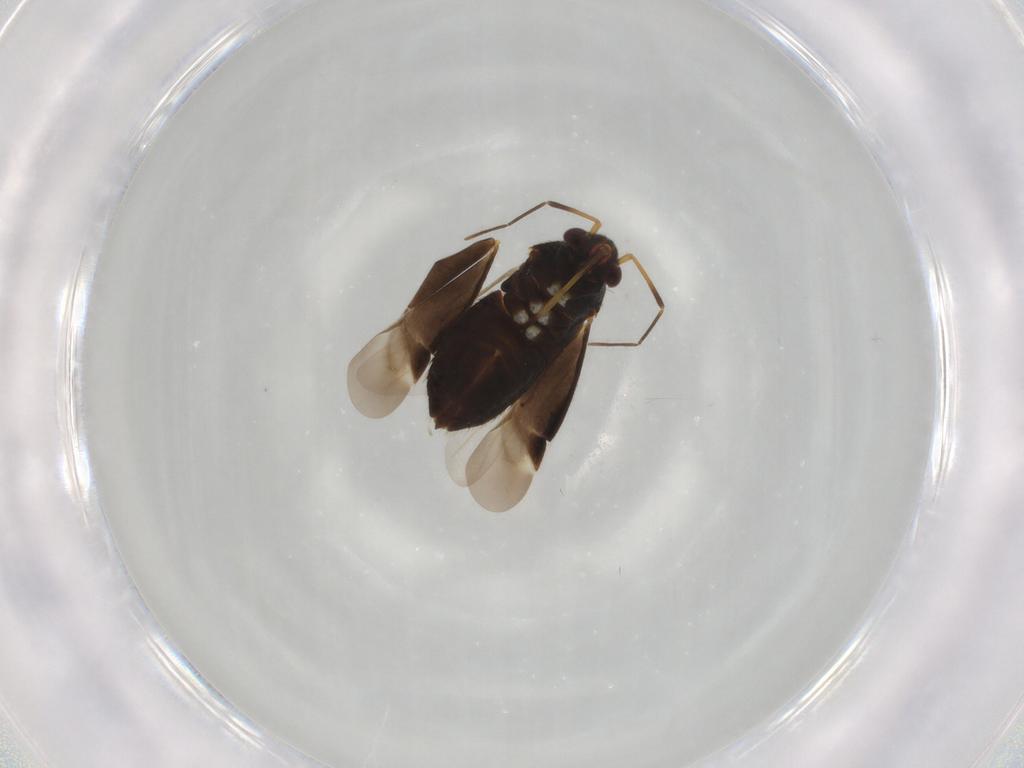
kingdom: Animalia
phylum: Arthropoda
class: Insecta
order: Hemiptera
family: Miridae
